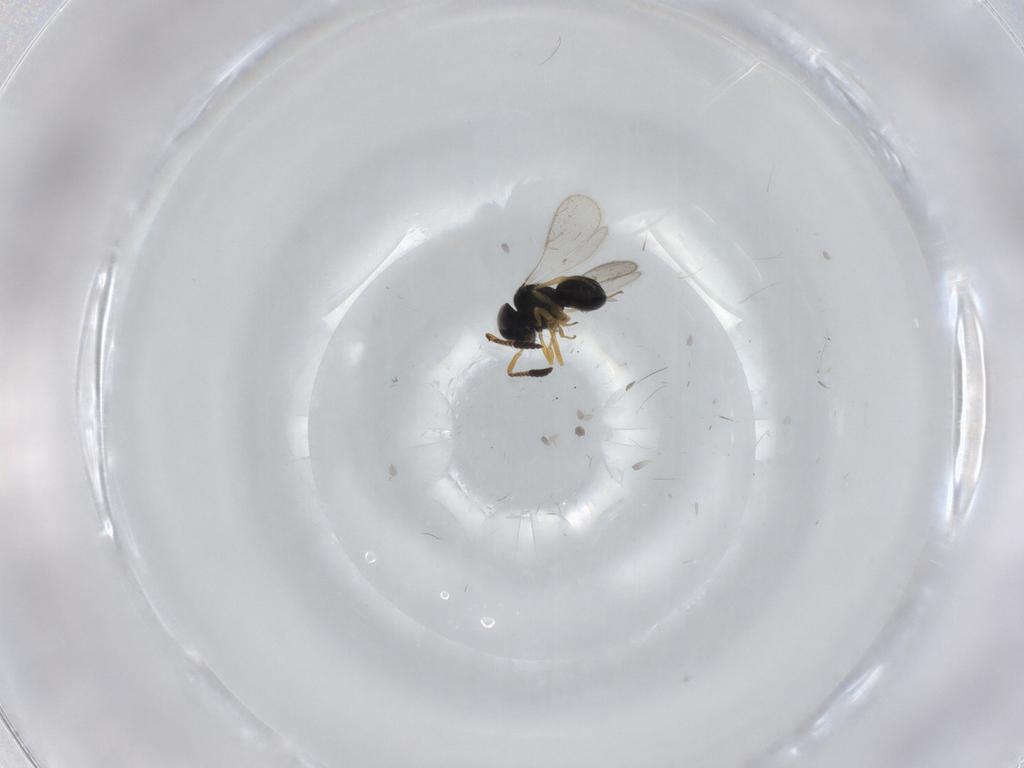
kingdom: Animalia
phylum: Arthropoda
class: Insecta
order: Hymenoptera
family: Scelionidae
